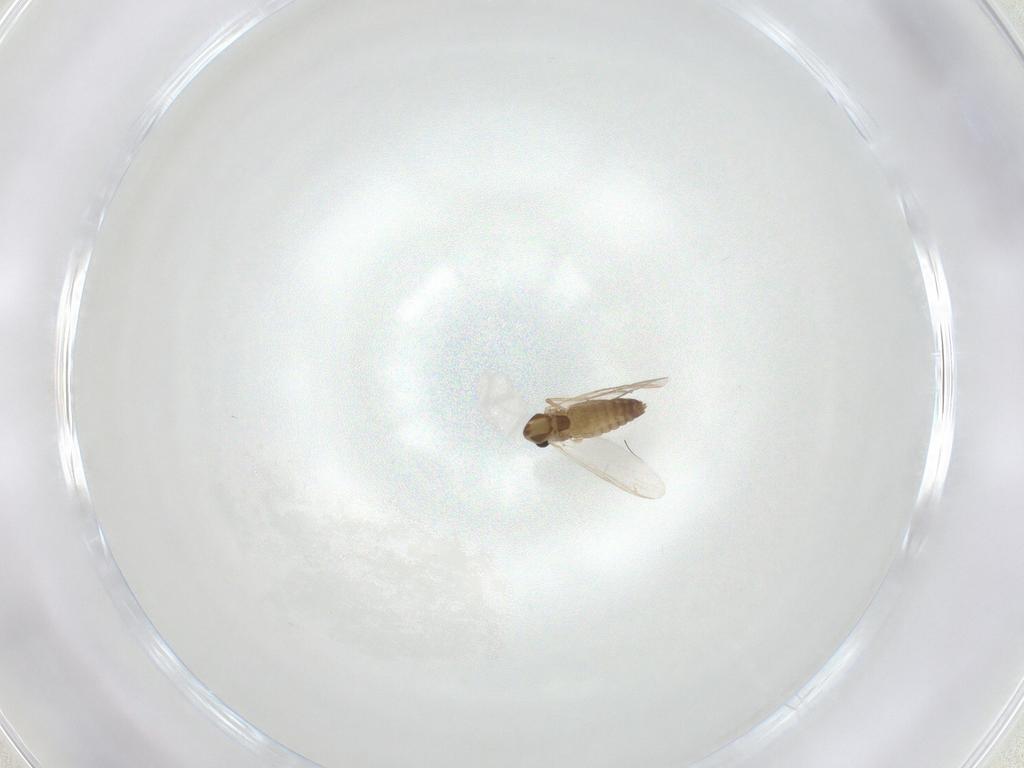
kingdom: Animalia
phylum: Arthropoda
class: Insecta
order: Diptera
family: Chironomidae
